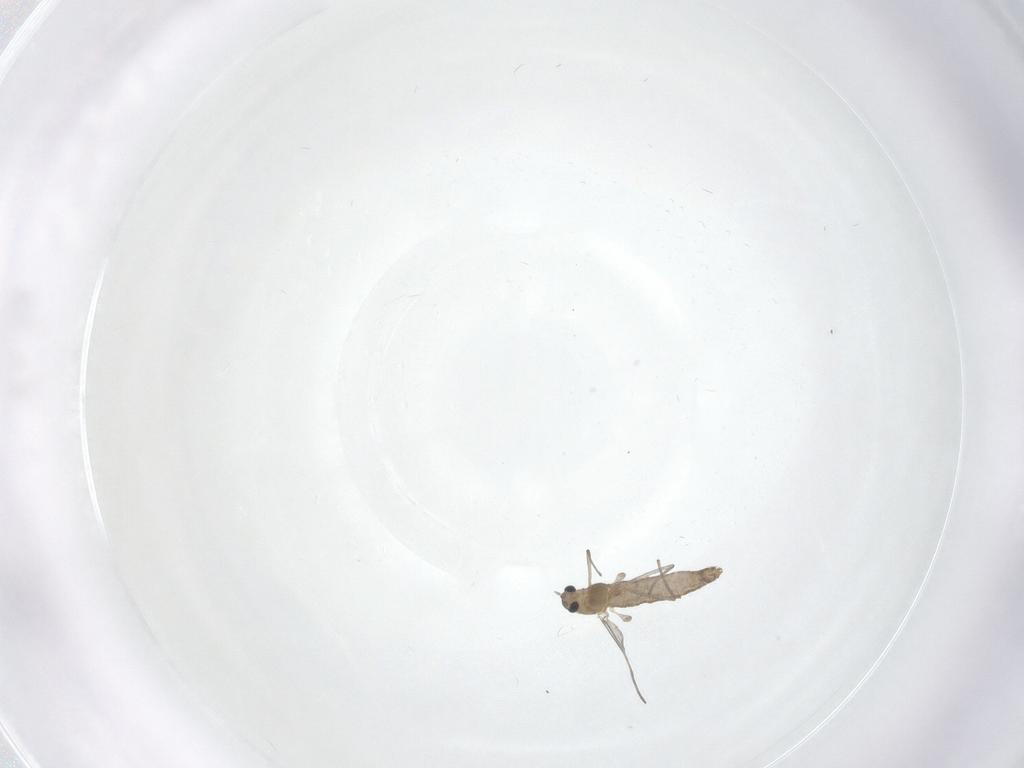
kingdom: Animalia
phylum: Arthropoda
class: Insecta
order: Diptera
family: Chironomidae
